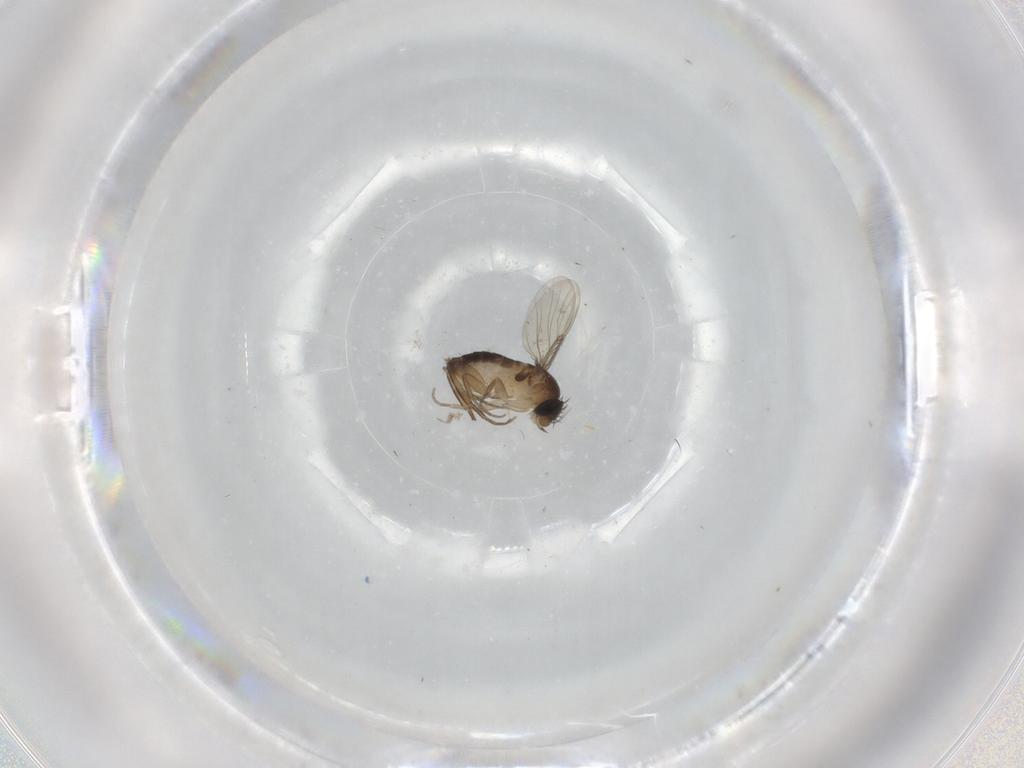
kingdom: Animalia
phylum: Arthropoda
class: Insecta
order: Diptera
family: Phoridae
